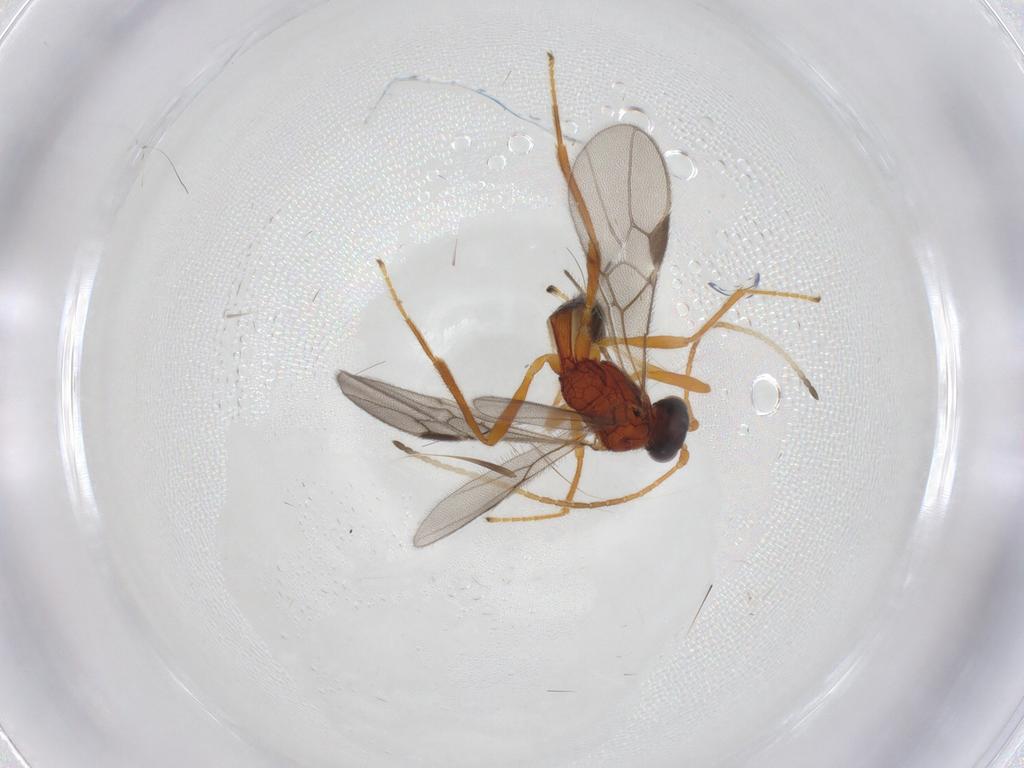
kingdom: Animalia
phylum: Arthropoda
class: Insecta
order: Hymenoptera
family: Braconidae
